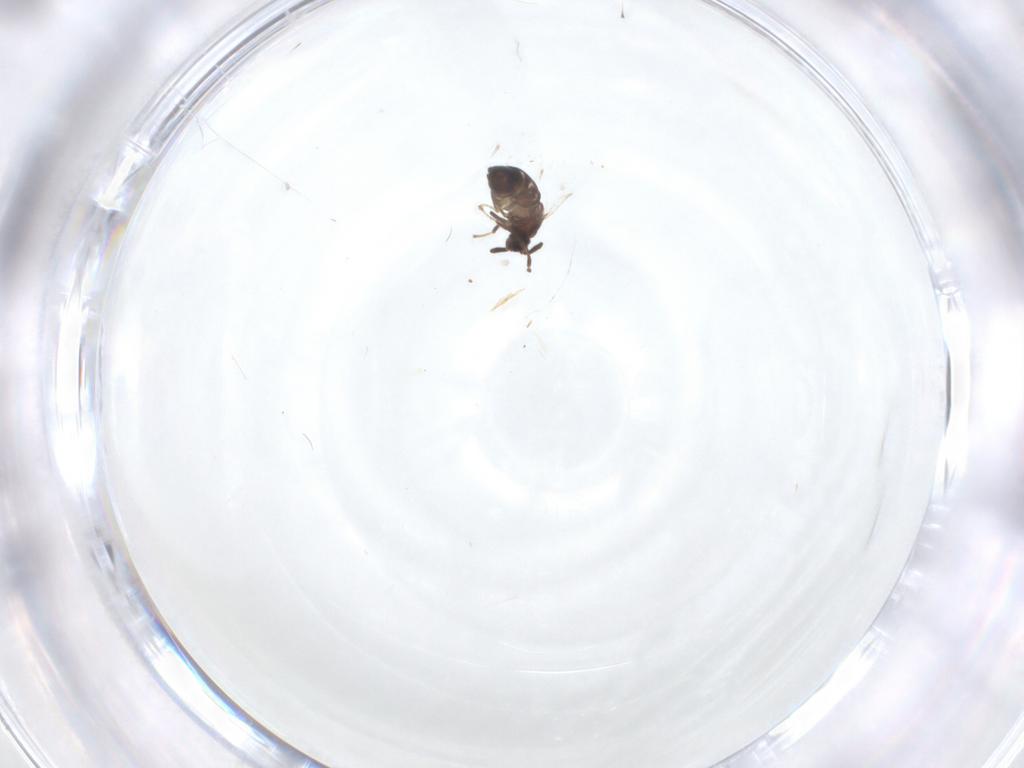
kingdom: Animalia
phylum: Arthropoda
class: Insecta
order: Diptera
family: Scatopsidae
